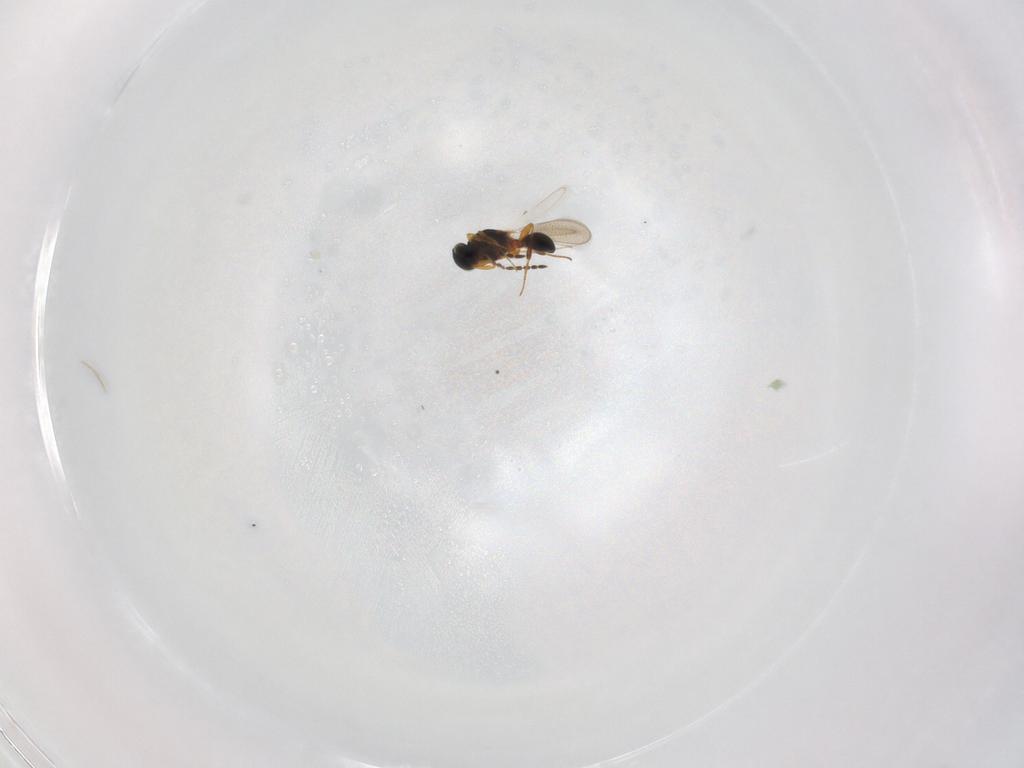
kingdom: Animalia
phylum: Arthropoda
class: Insecta
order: Hymenoptera
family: Platygastridae
